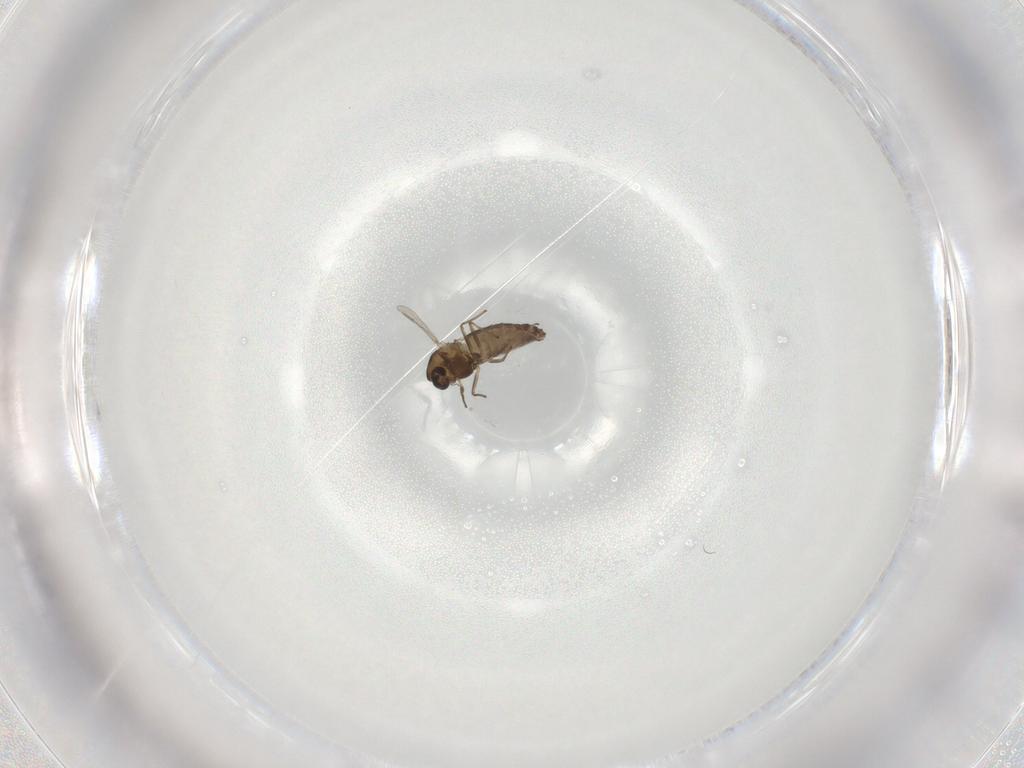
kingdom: Animalia
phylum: Arthropoda
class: Insecta
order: Diptera
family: Chironomidae
